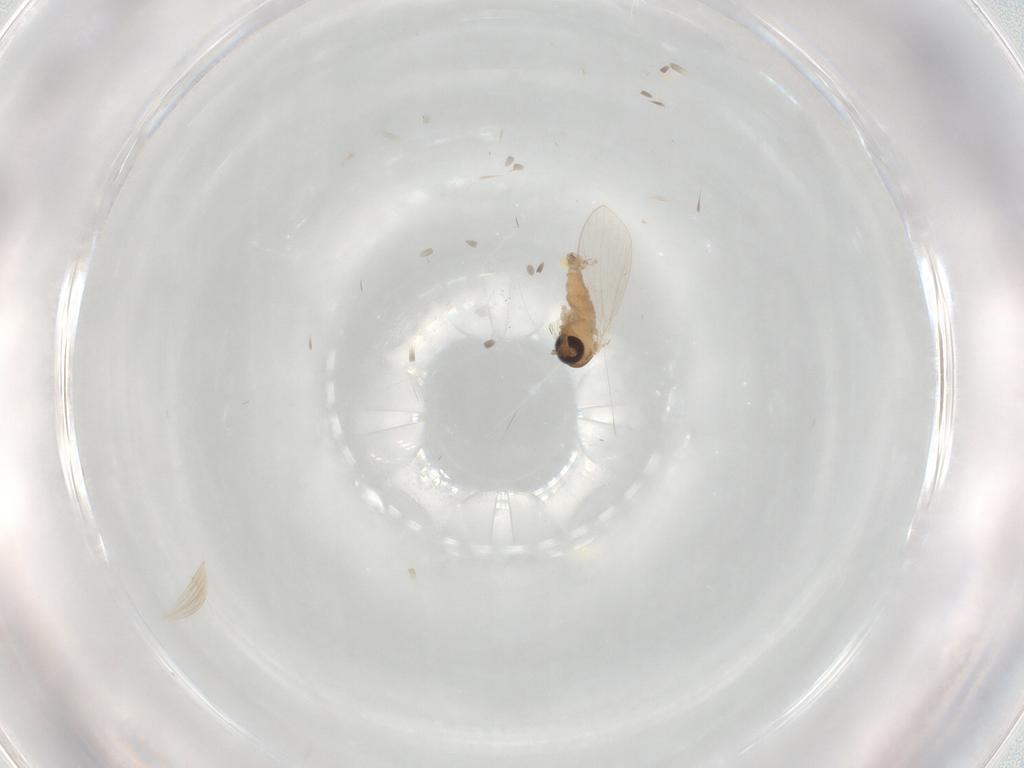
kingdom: Animalia
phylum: Arthropoda
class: Insecta
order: Diptera
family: Psychodidae
